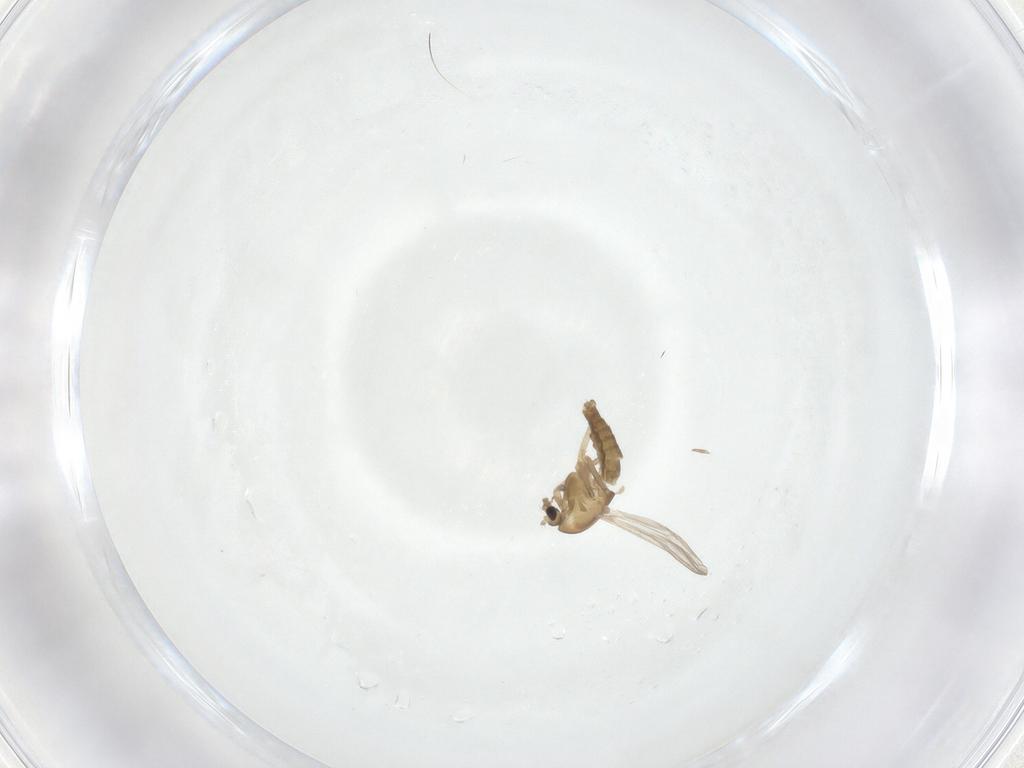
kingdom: Animalia
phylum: Arthropoda
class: Insecta
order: Diptera
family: Chironomidae
